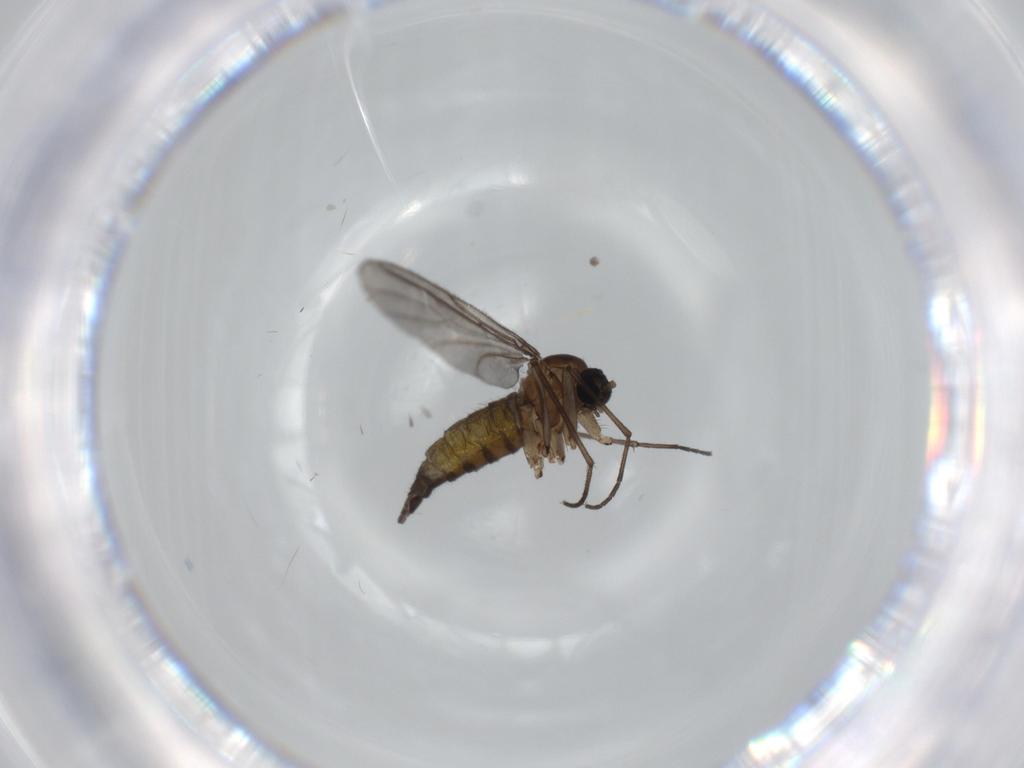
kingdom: Animalia
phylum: Arthropoda
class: Insecta
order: Diptera
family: Sciaridae
